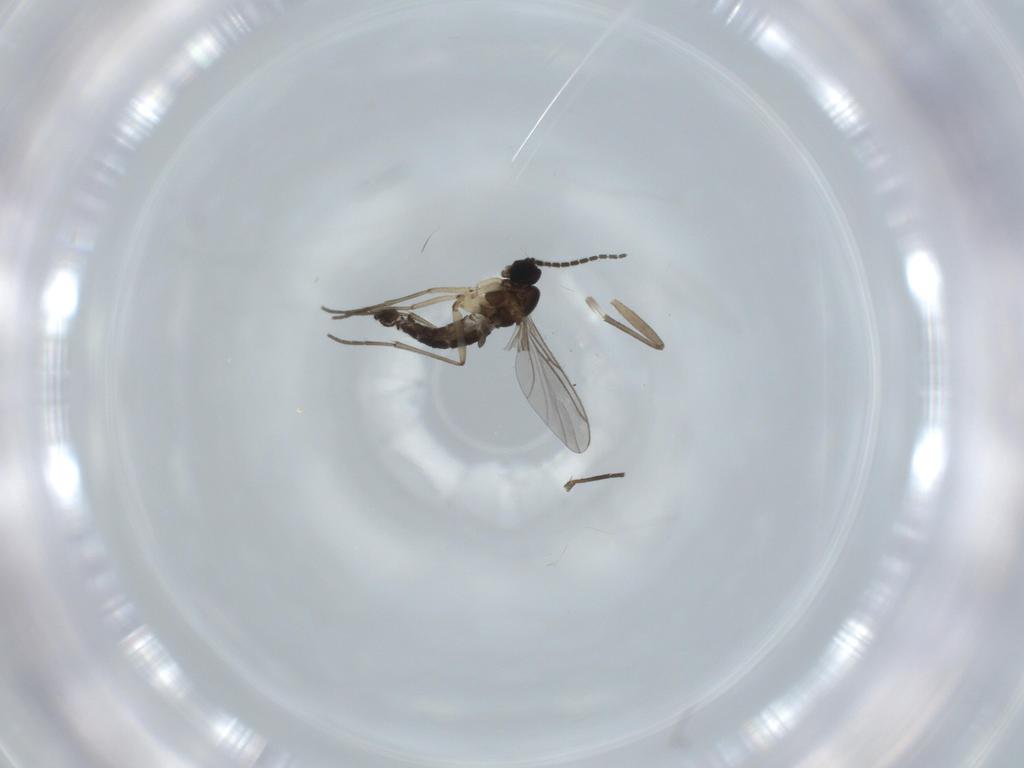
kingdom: Animalia
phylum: Arthropoda
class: Insecta
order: Diptera
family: Sciaridae
